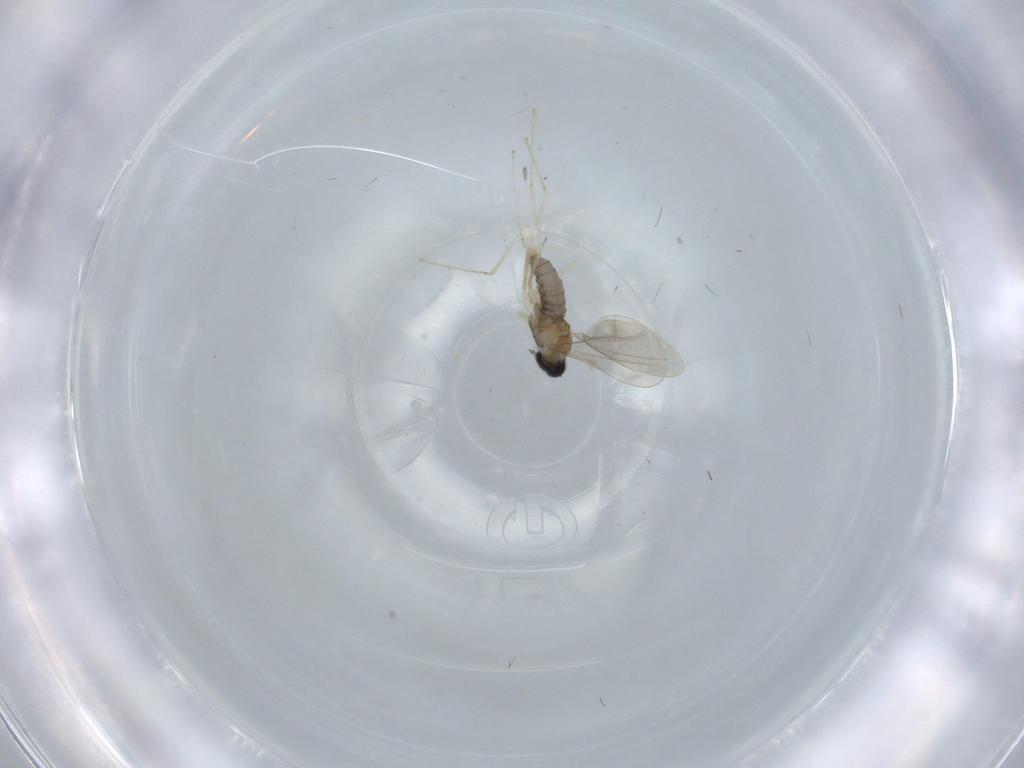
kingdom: Animalia
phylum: Arthropoda
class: Insecta
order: Diptera
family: Cecidomyiidae
